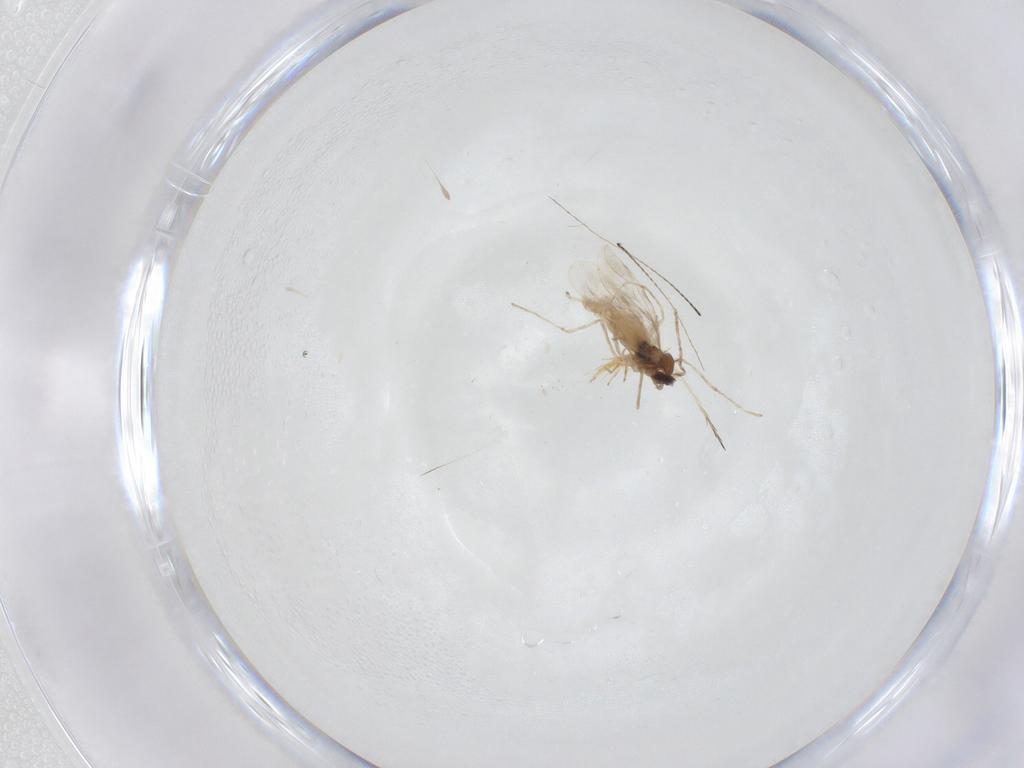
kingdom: Animalia
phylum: Arthropoda
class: Insecta
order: Diptera
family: Cecidomyiidae
